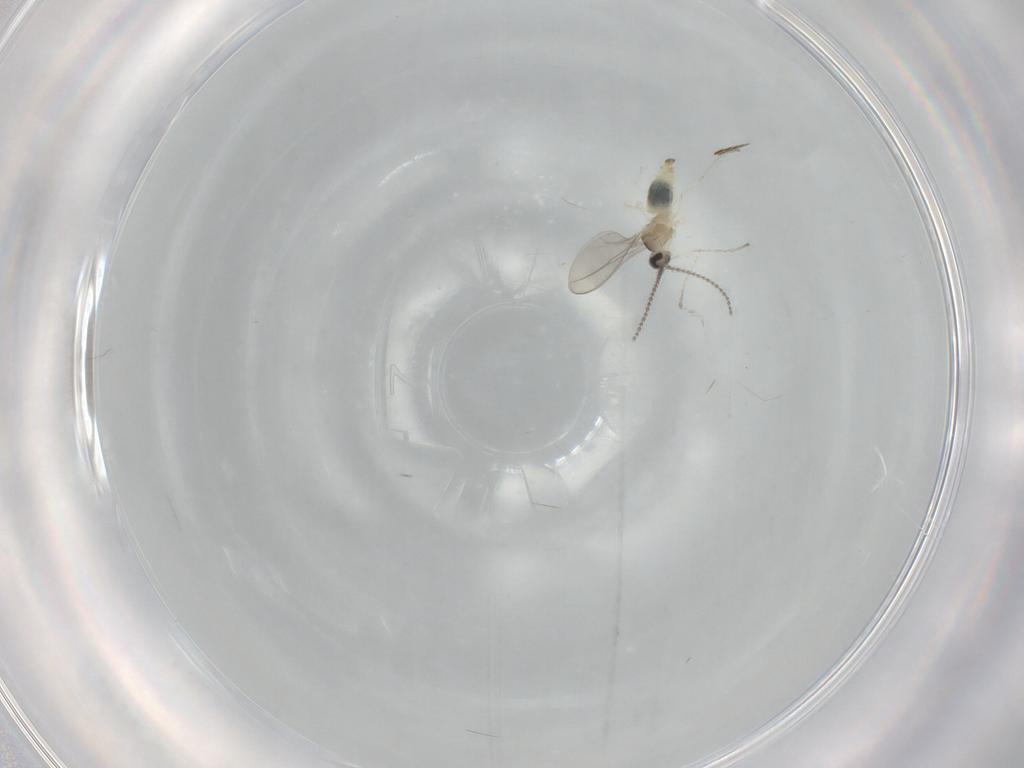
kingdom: Animalia
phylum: Arthropoda
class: Insecta
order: Diptera
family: Cecidomyiidae
